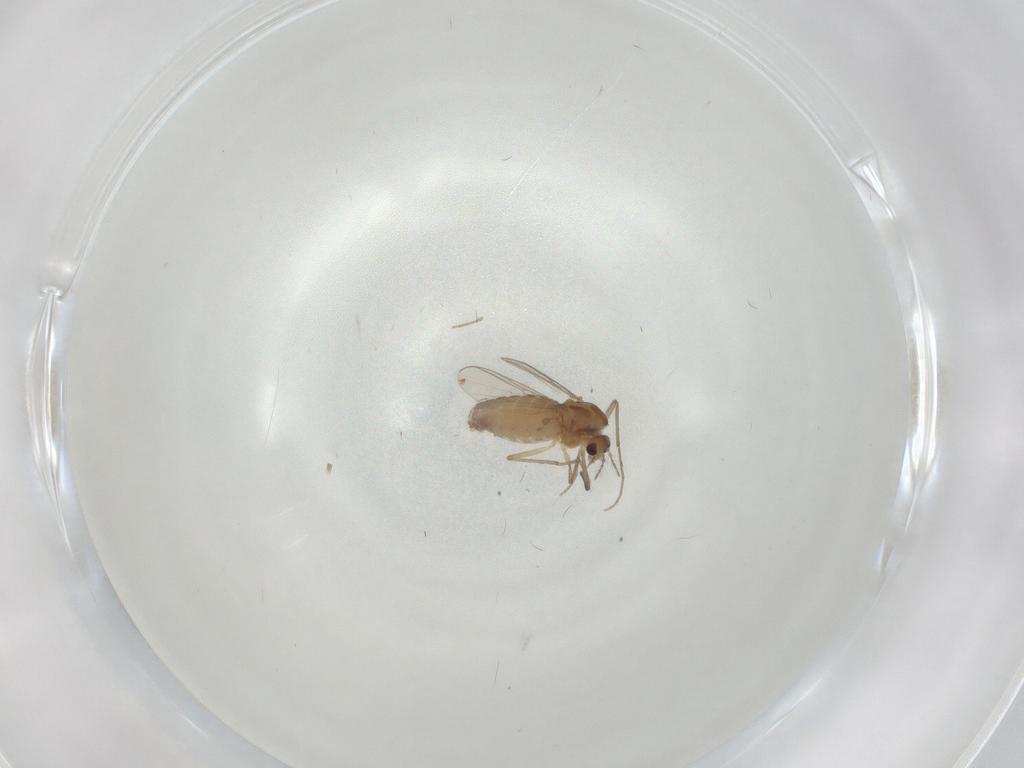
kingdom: Animalia
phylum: Arthropoda
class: Insecta
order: Diptera
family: Chironomidae
